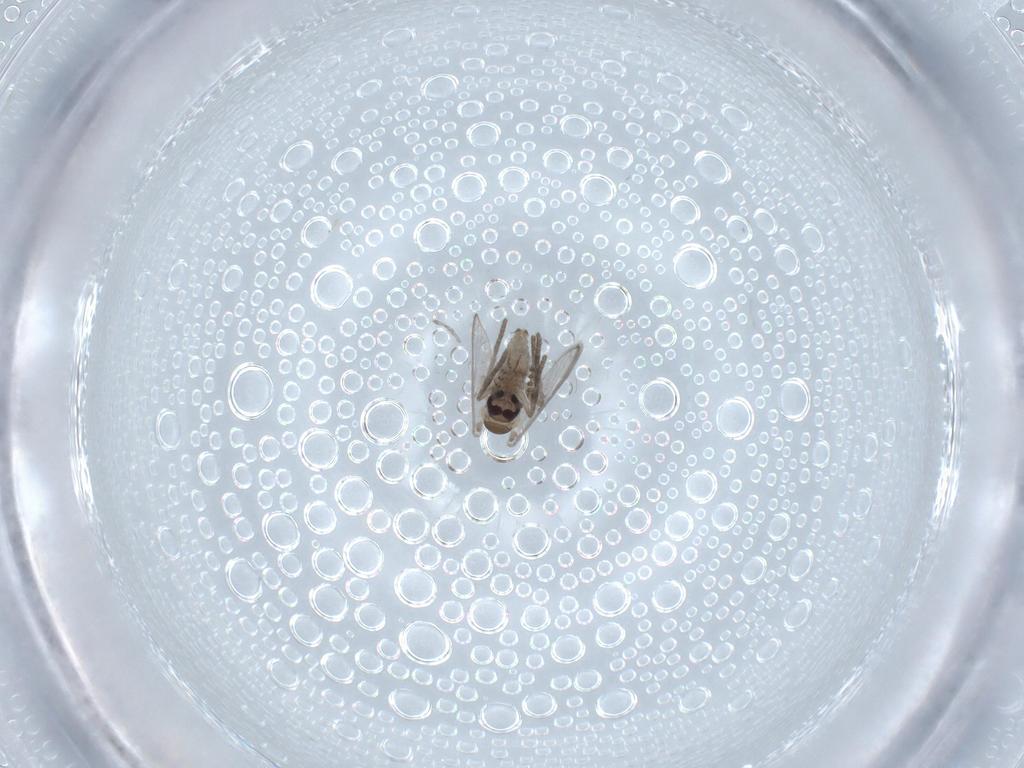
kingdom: Animalia
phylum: Arthropoda
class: Insecta
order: Diptera
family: Psychodidae
